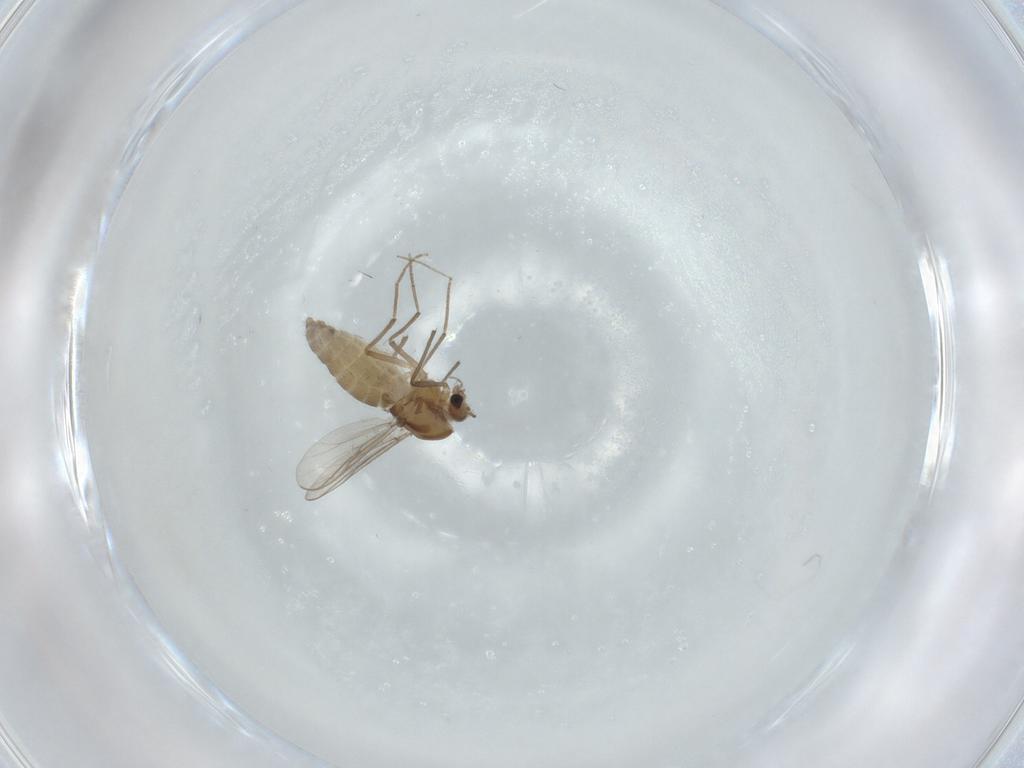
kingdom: Animalia
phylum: Arthropoda
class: Insecta
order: Diptera
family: Chironomidae
